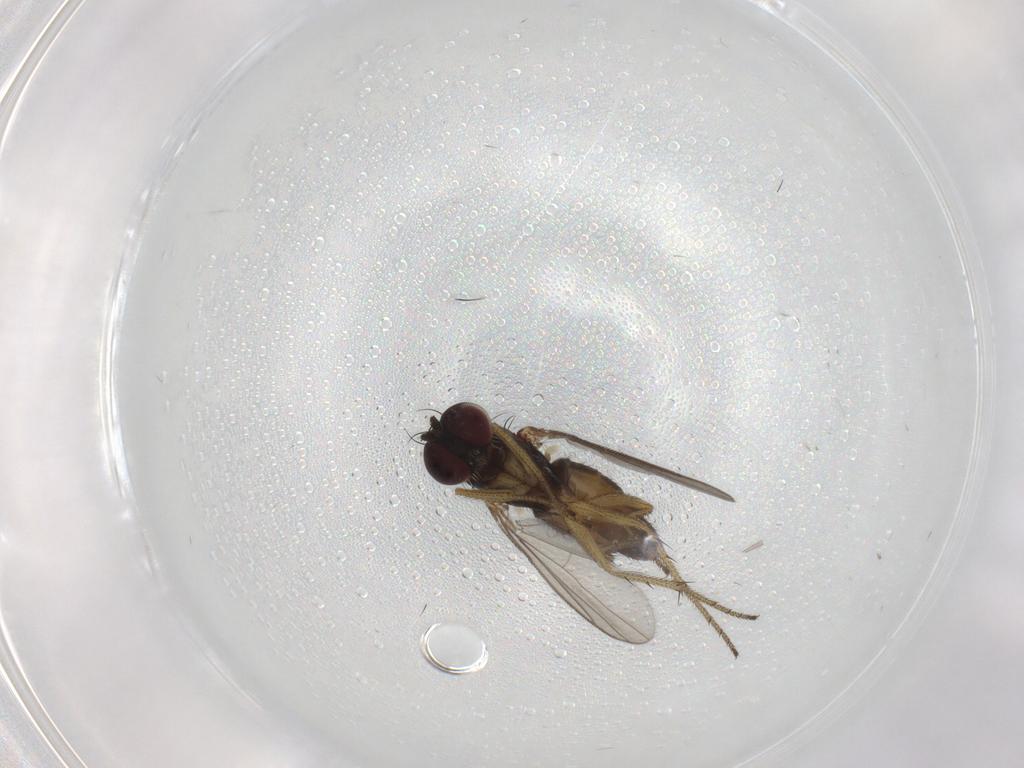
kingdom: Animalia
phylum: Arthropoda
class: Insecta
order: Diptera
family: Dolichopodidae
